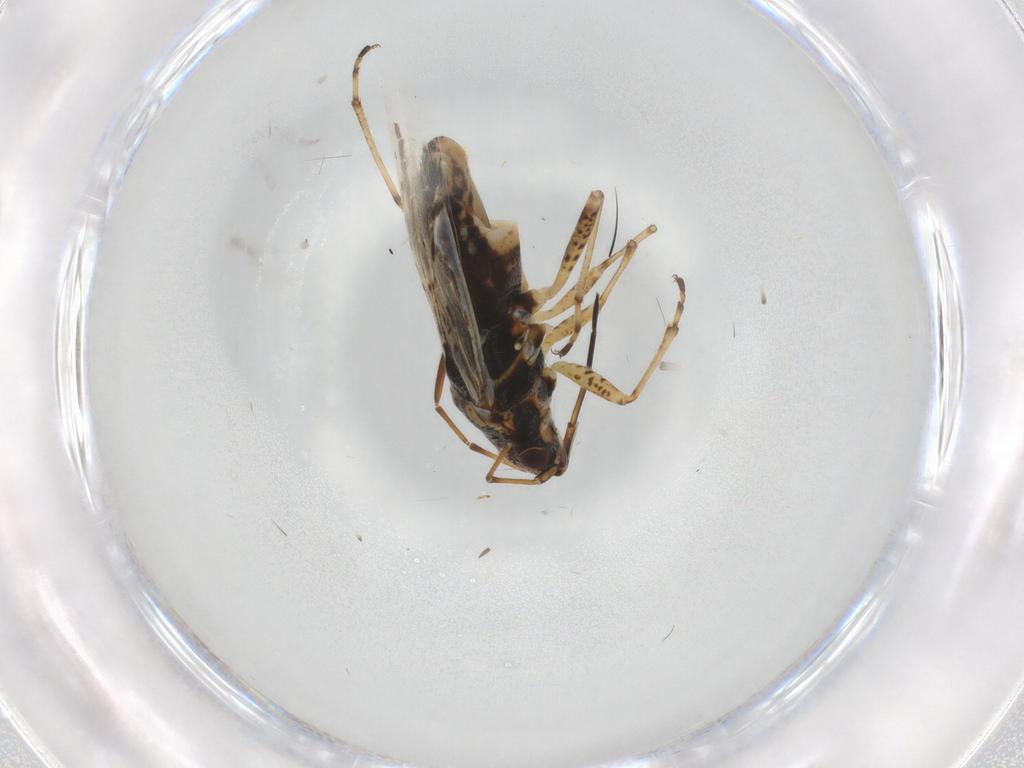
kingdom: Animalia
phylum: Arthropoda
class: Insecta
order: Hemiptera
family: Lygaeidae
